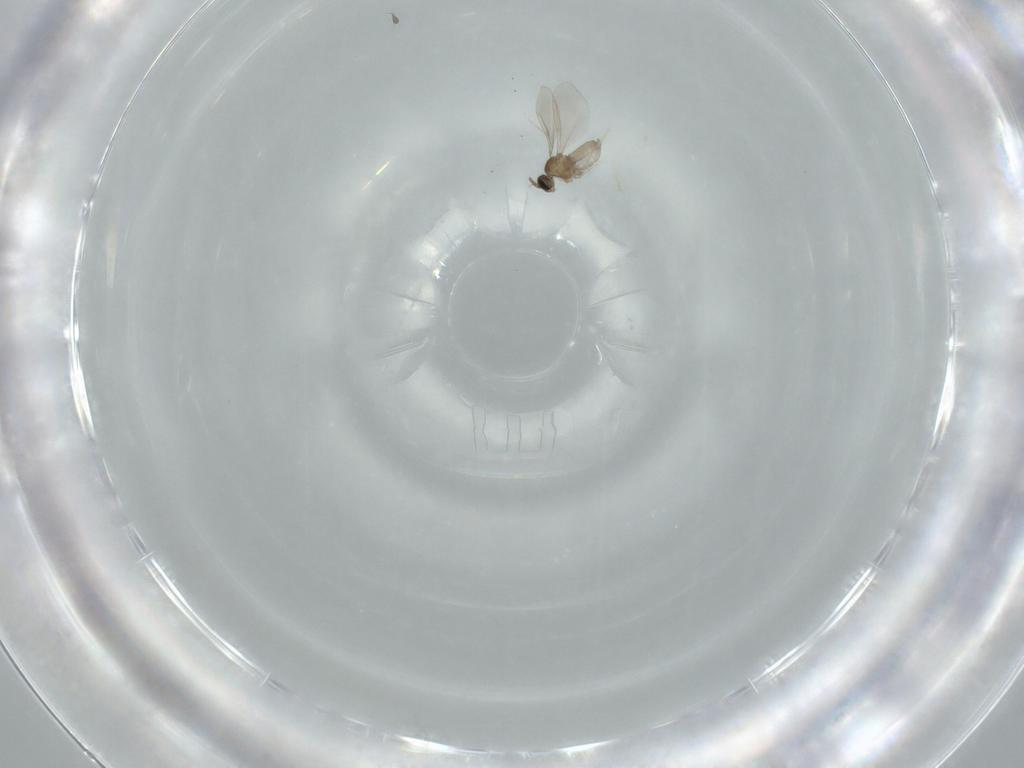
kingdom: Animalia
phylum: Arthropoda
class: Insecta
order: Diptera
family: Cecidomyiidae
